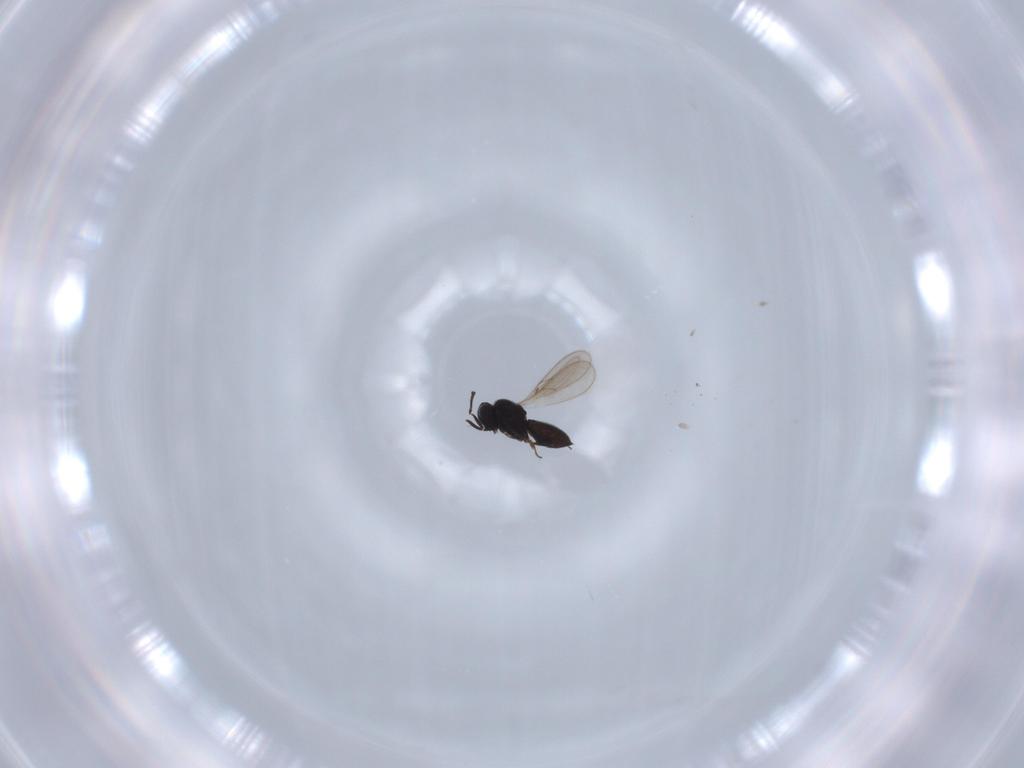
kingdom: Animalia
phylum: Arthropoda
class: Insecta
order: Hymenoptera
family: Scelionidae
